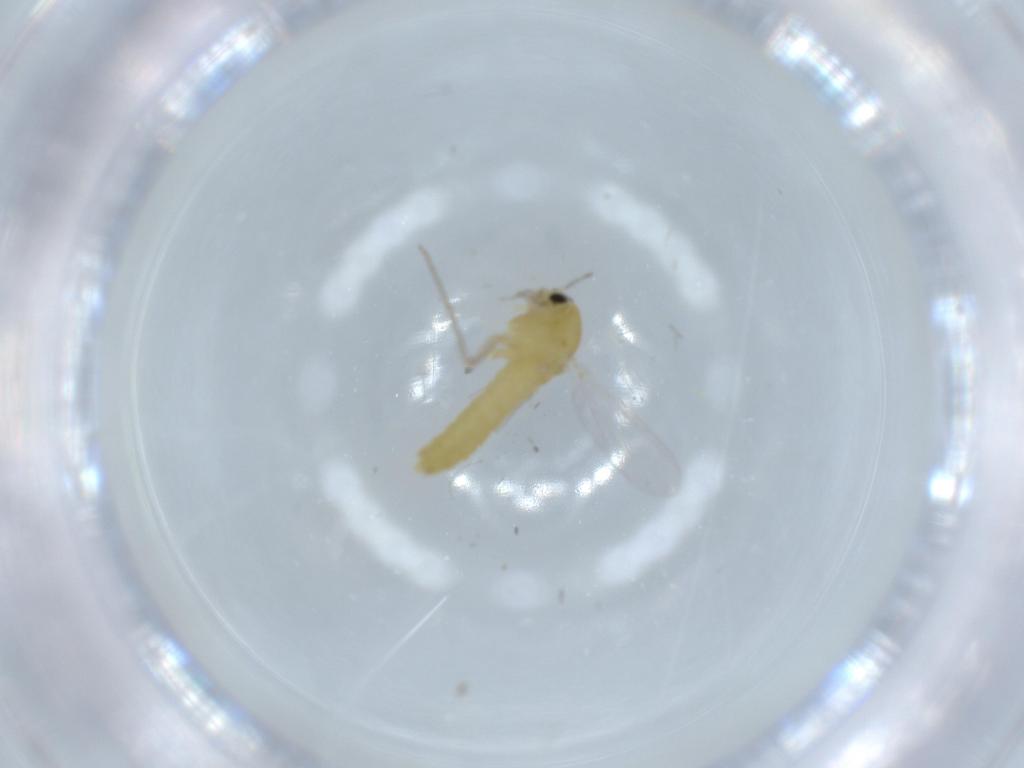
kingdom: Animalia
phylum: Arthropoda
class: Insecta
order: Diptera
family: Chironomidae
